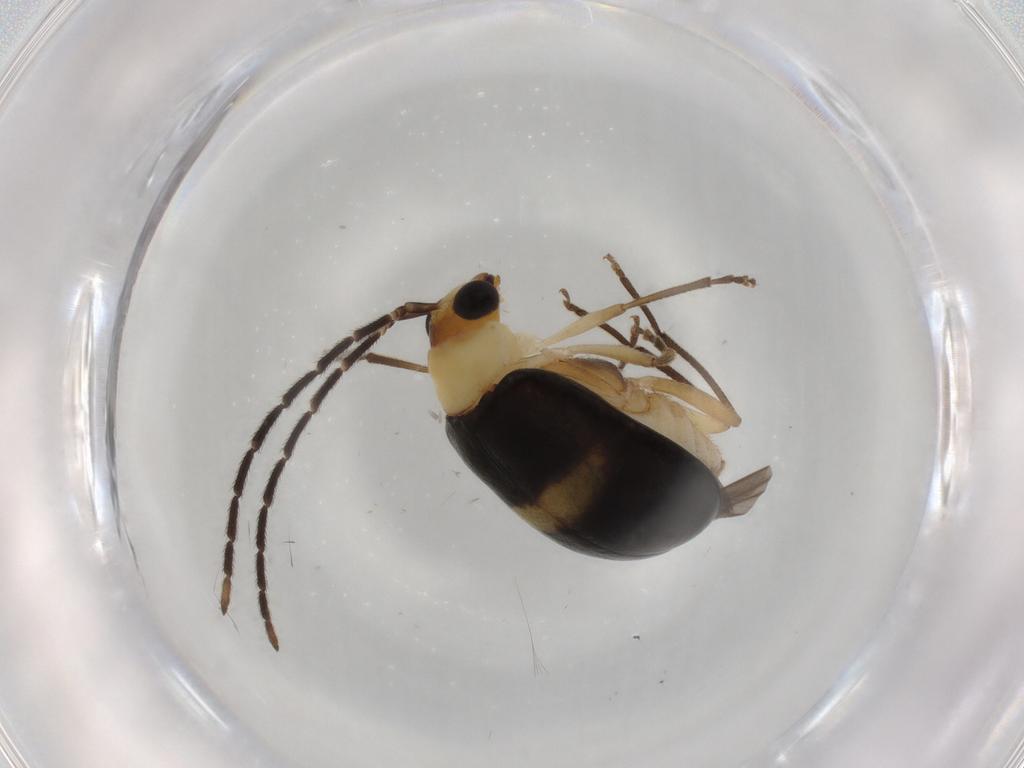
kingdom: Animalia
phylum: Arthropoda
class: Insecta
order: Coleoptera
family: Chrysomelidae
